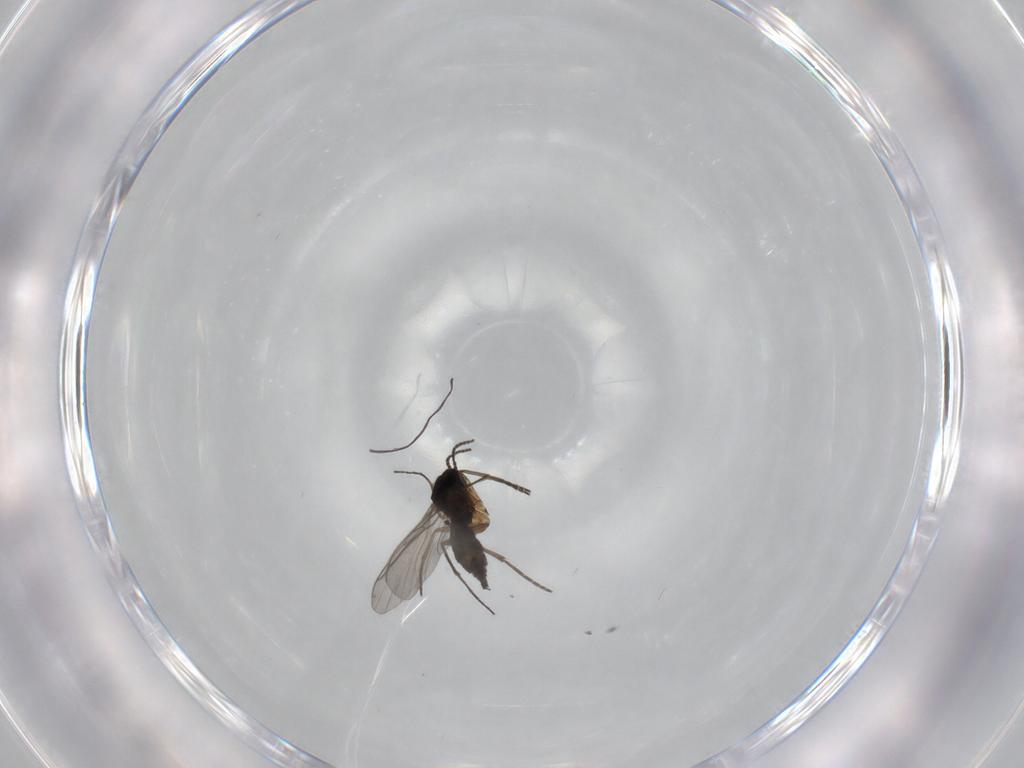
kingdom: Animalia
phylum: Arthropoda
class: Insecta
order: Diptera
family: Sciaridae
